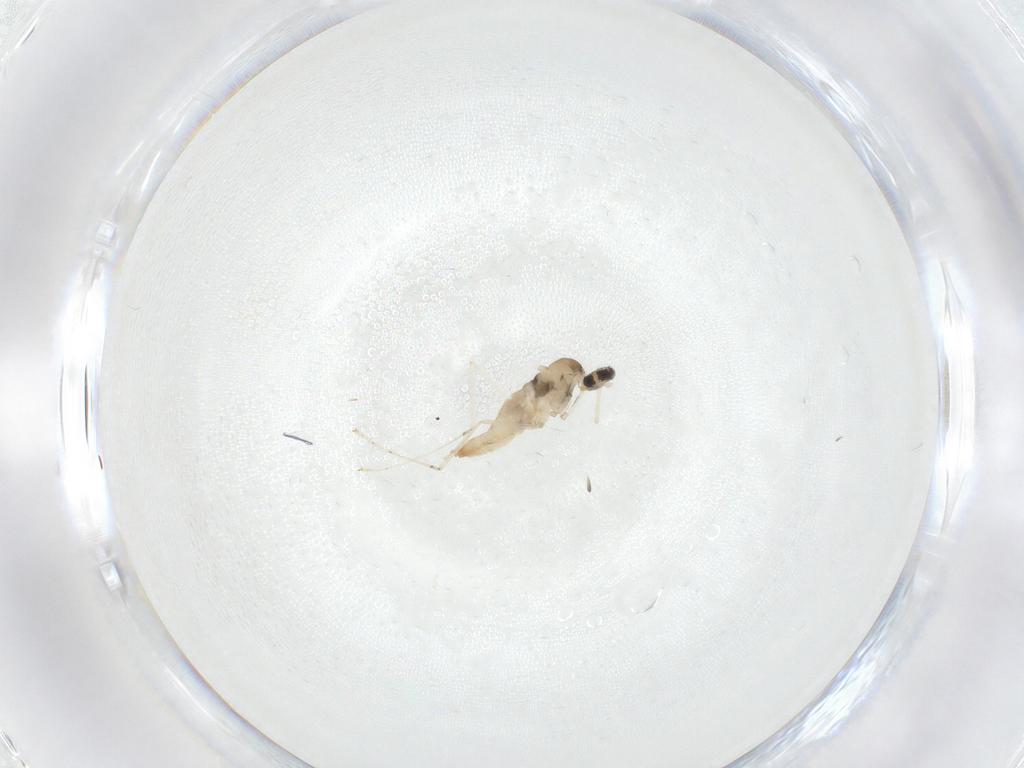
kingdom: Animalia
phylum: Arthropoda
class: Insecta
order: Diptera
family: Cecidomyiidae
